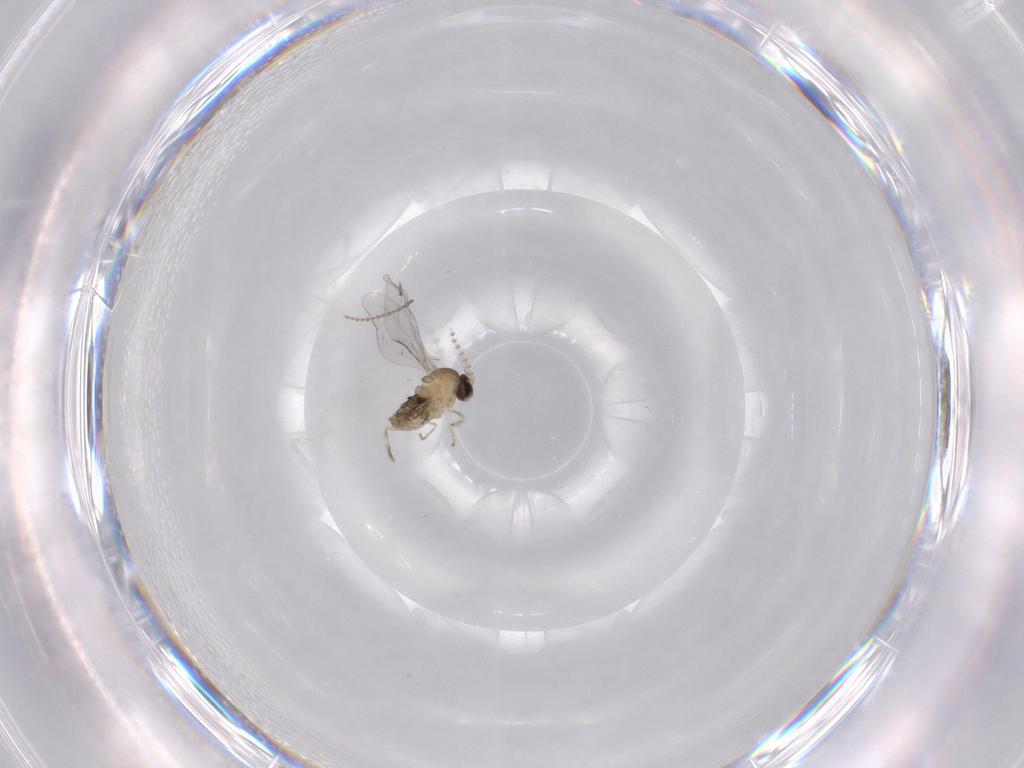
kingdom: Animalia
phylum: Arthropoda
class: Insecta
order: Diptera
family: Cecidomyiidae
